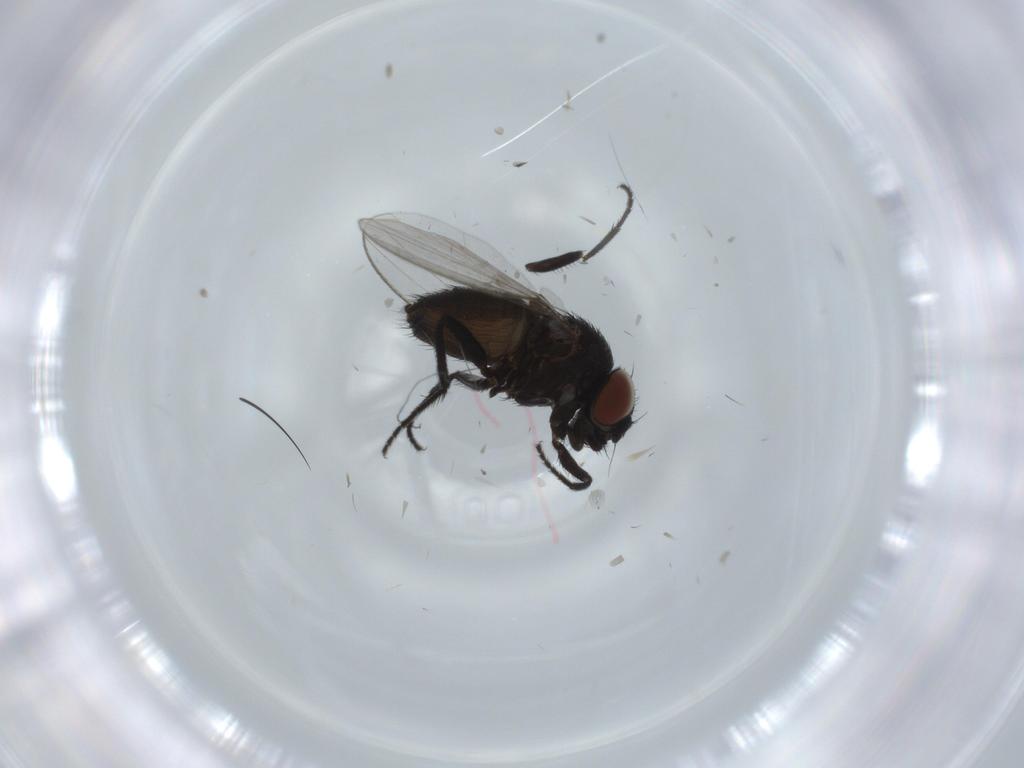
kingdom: Animalia
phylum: Arthropoda
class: Insecta
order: Diptera
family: Milichiidae
